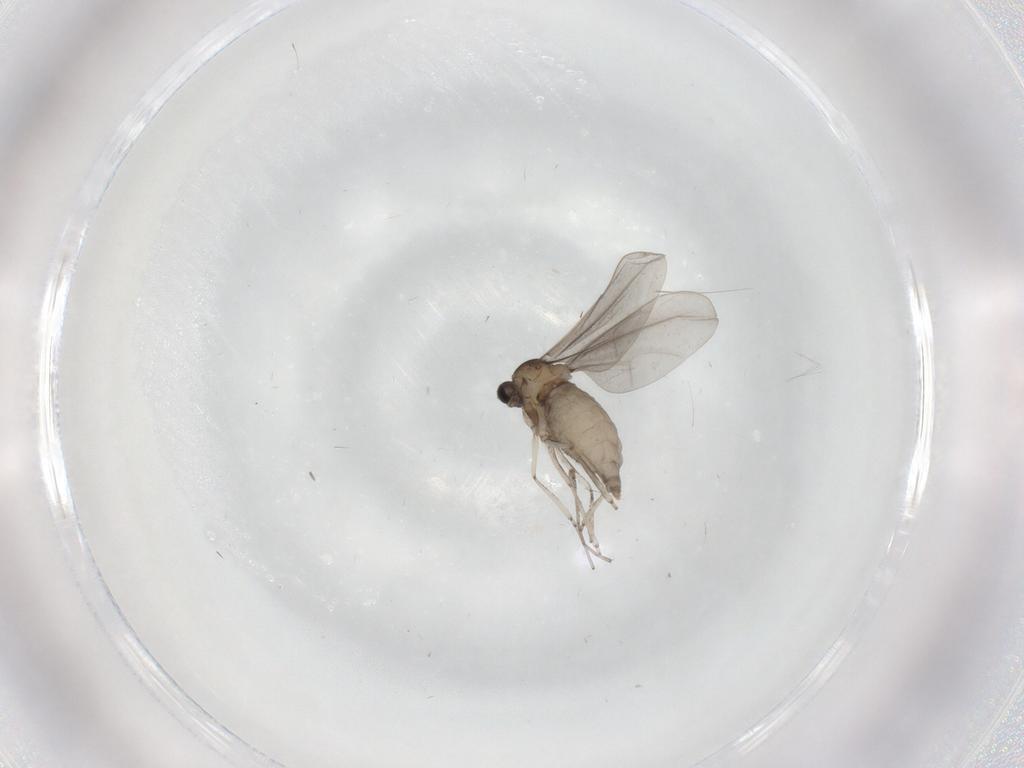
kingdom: Animalia
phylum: Arthropoda
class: Insecta
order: Diptera
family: Cecidomyiidae
